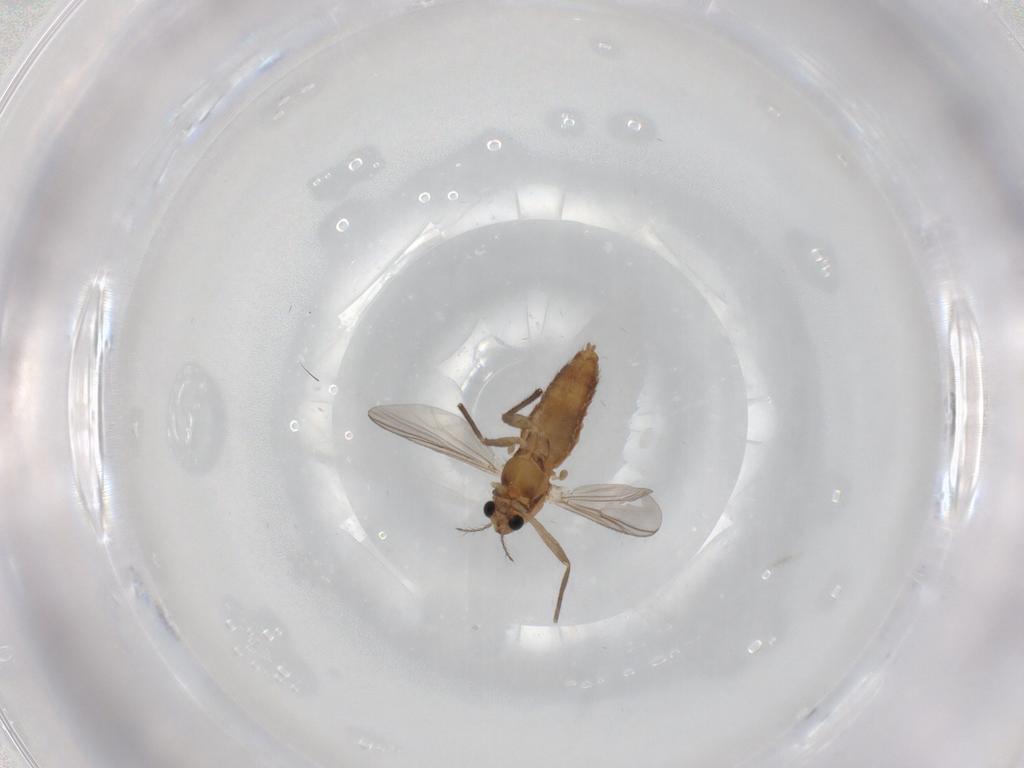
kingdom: Animalia
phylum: Arthropoda
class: Insecta
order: Diptera
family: Chironomidae
